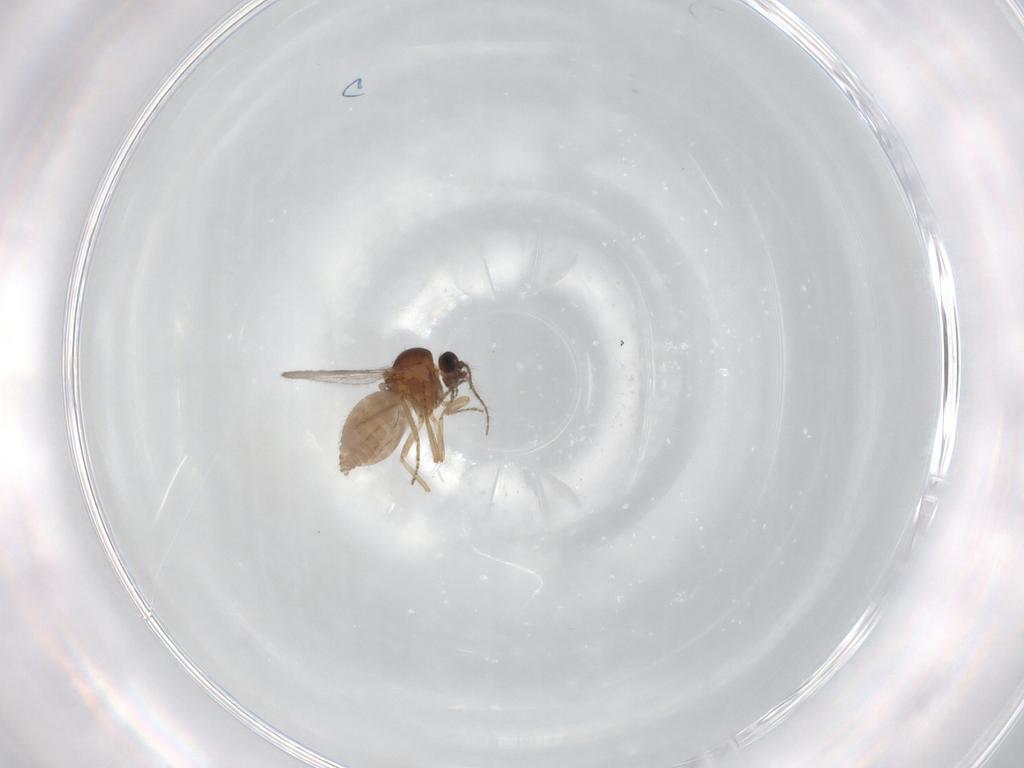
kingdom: Animalia
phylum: Arthropoda
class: Insecta
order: Diptera
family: Ceratopogonidae
